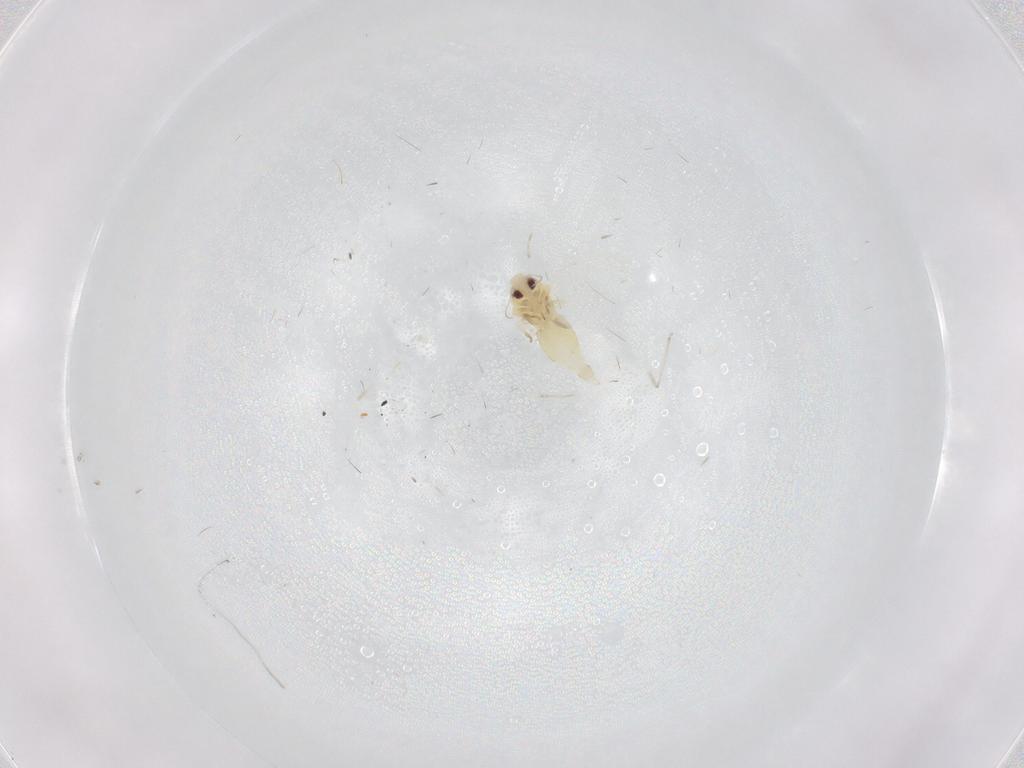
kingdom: Animalia
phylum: Arthropoda
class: Insecta
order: Hemiptera
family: Aleyrodidae
